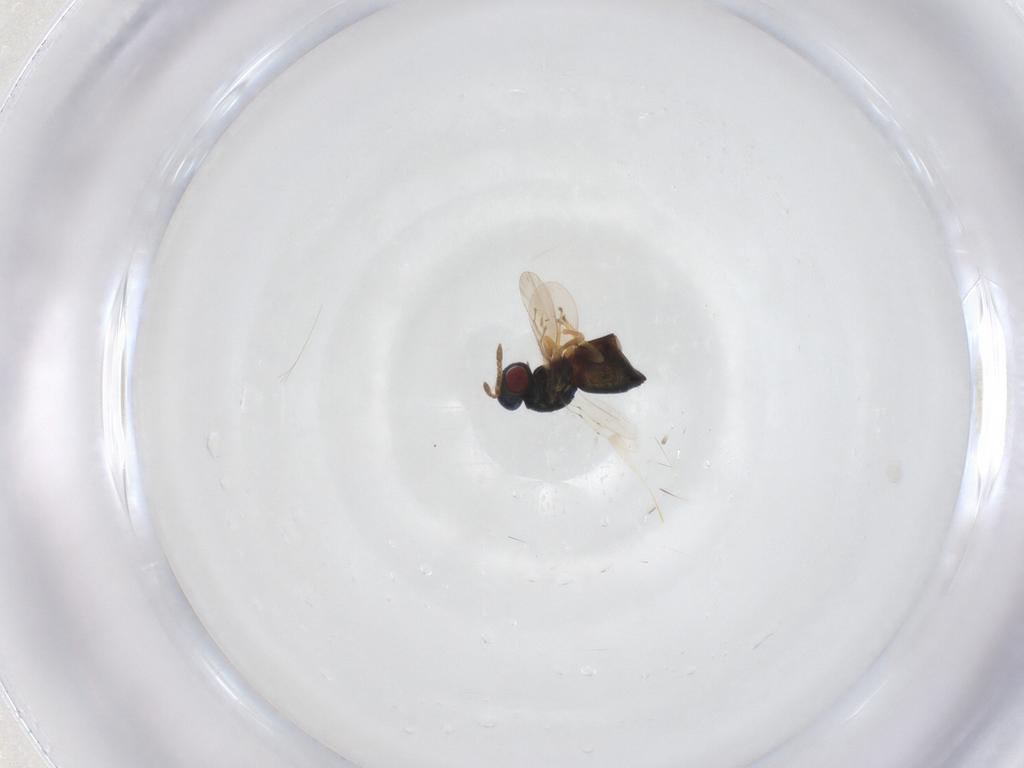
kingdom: Animalia
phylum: Arthropoda
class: Insecta
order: Hymenoptera
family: Pteromalidae
